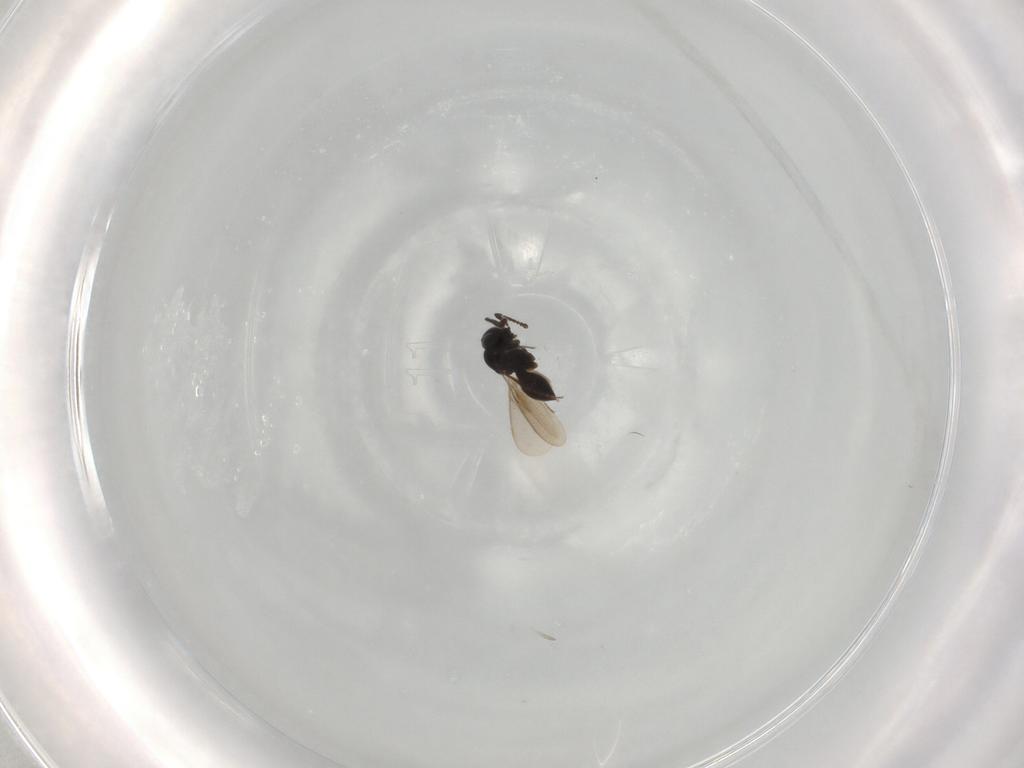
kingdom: Animalia
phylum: Arthropoda
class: Insecta
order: Hymenoptera
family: Scelionidae
